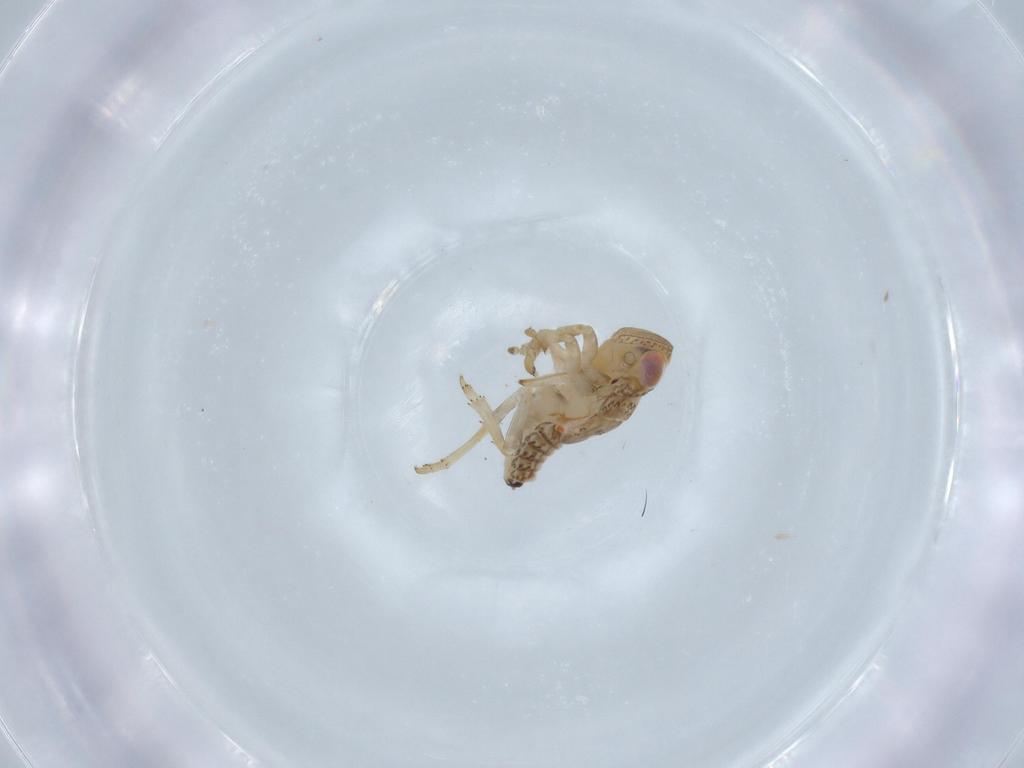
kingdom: Animalia
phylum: Arthropoda
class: Insecta
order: Hemiptera
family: Issidae
